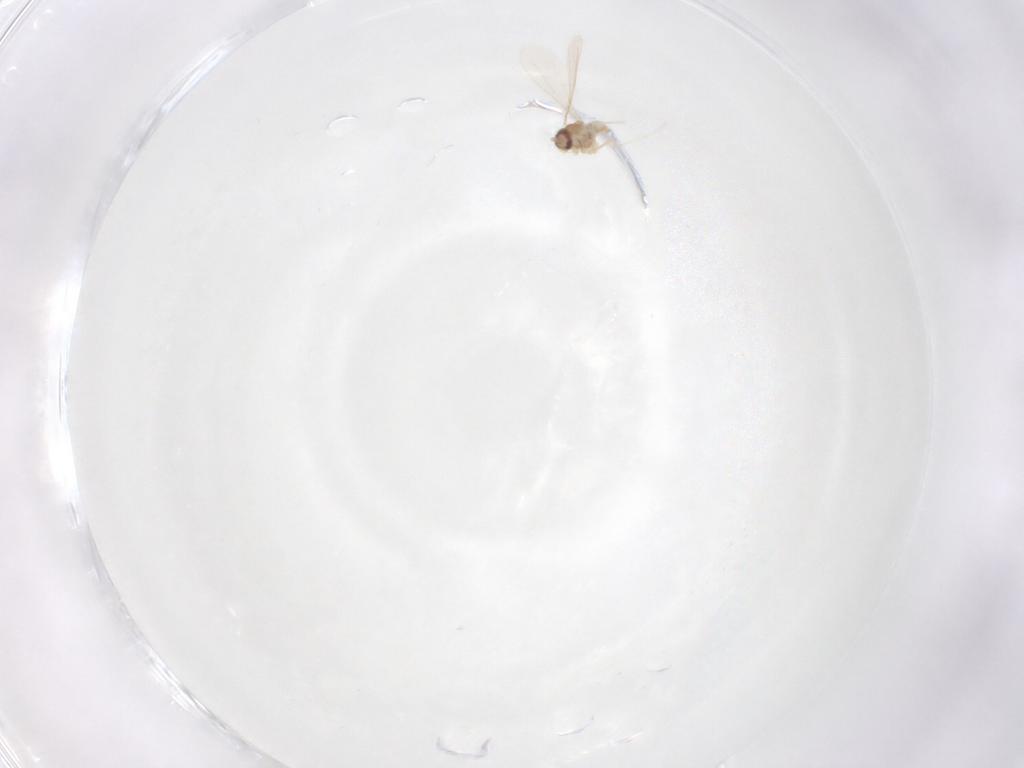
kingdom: Animalia
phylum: Arthropoda
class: Insecta
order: Diptera
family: Cecidomyiidae
